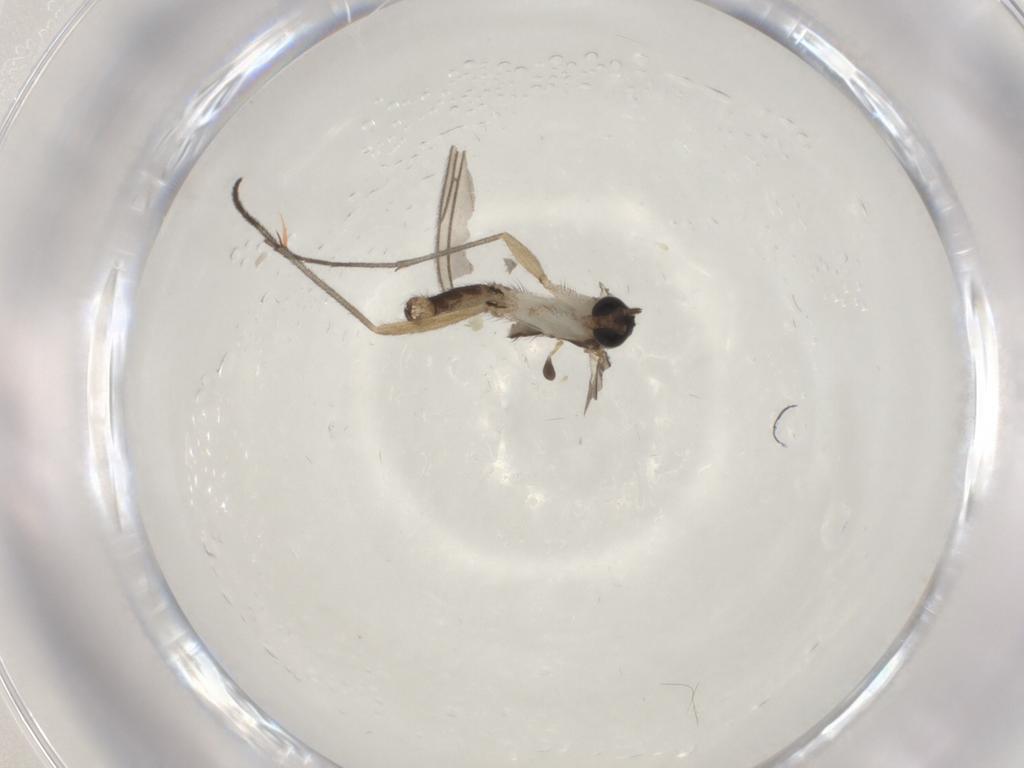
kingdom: Animalia
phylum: Arthropoda
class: Insecta
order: Diptera
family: Sciaridae
